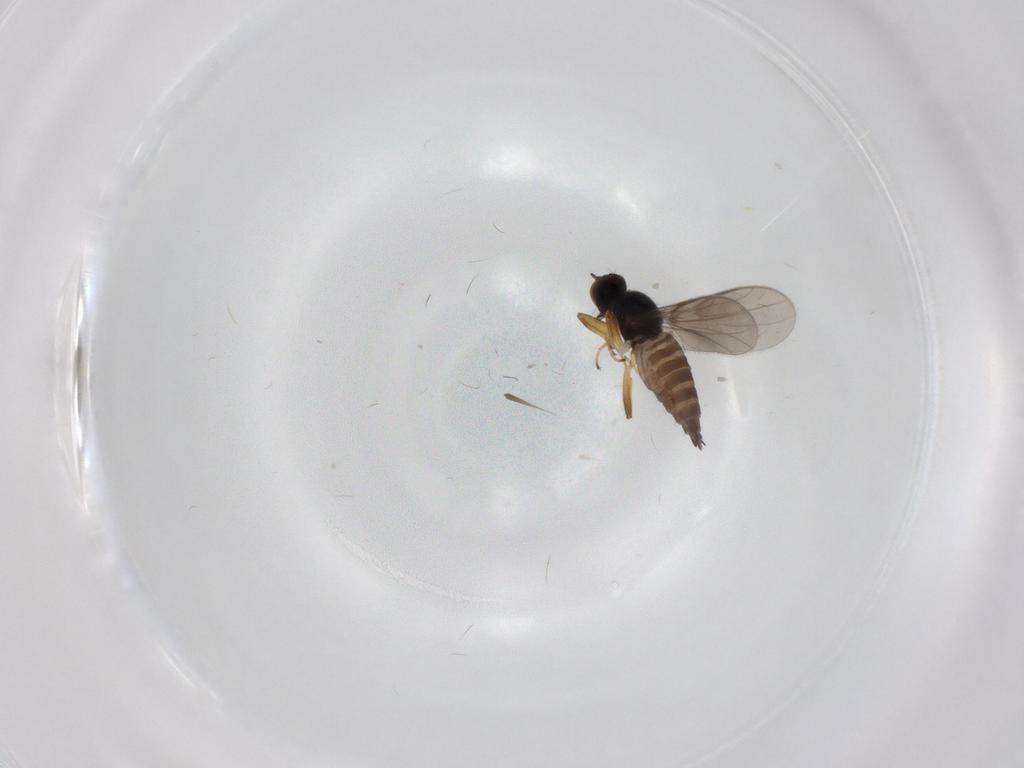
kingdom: Animalia
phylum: Arthropoda
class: Insecta
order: Diptera
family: Hybotidae
